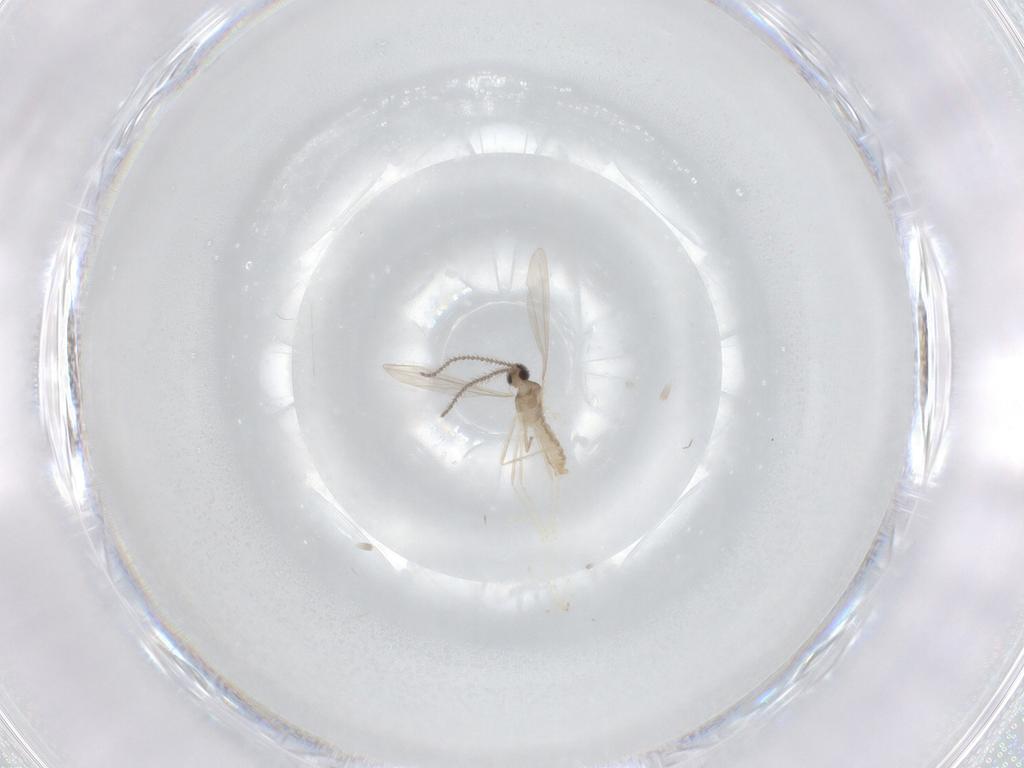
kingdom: Animalia
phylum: Arthropoda
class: Insecta
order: Diptera
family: Cecidomyiidae
